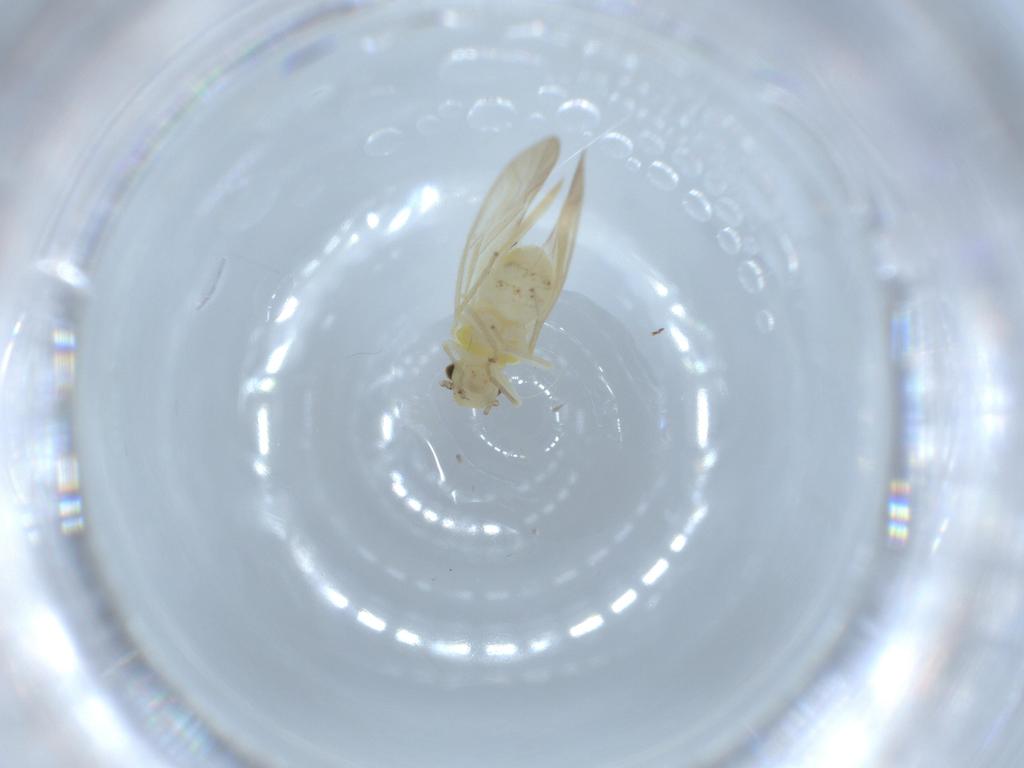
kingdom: Animalia
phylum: Arthropoda
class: Insecta
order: Psocodea
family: Caeciliusidae
